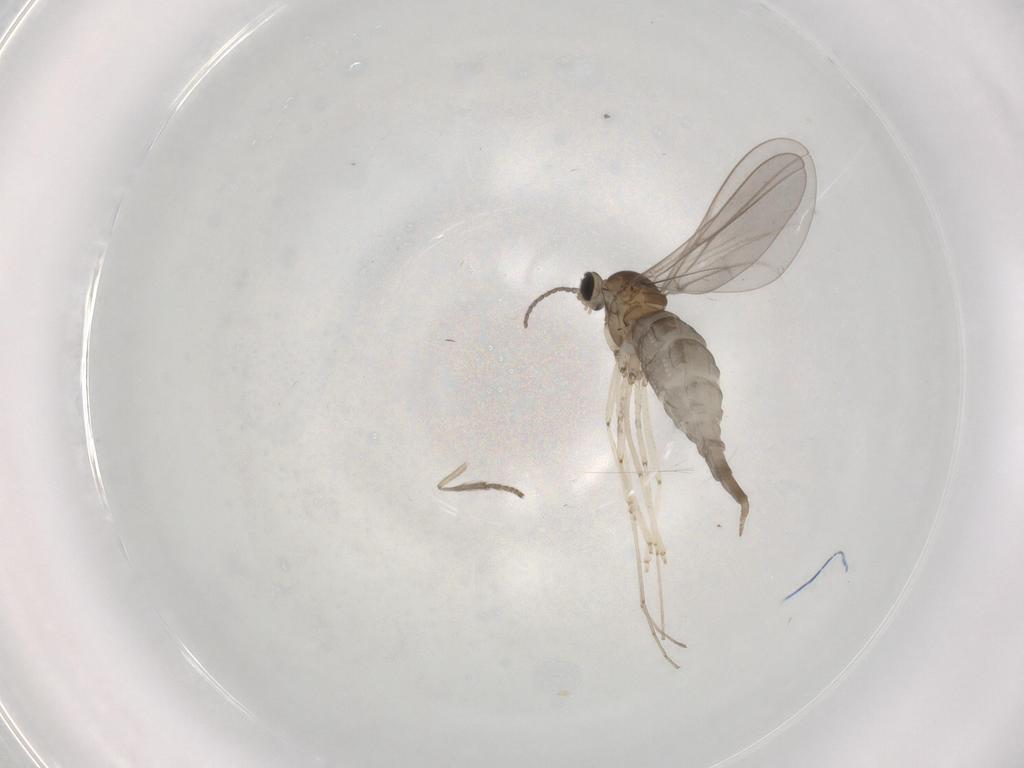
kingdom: Animalia
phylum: Arthropoda
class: Insecta
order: Diptera
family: Cecidomyiidae
